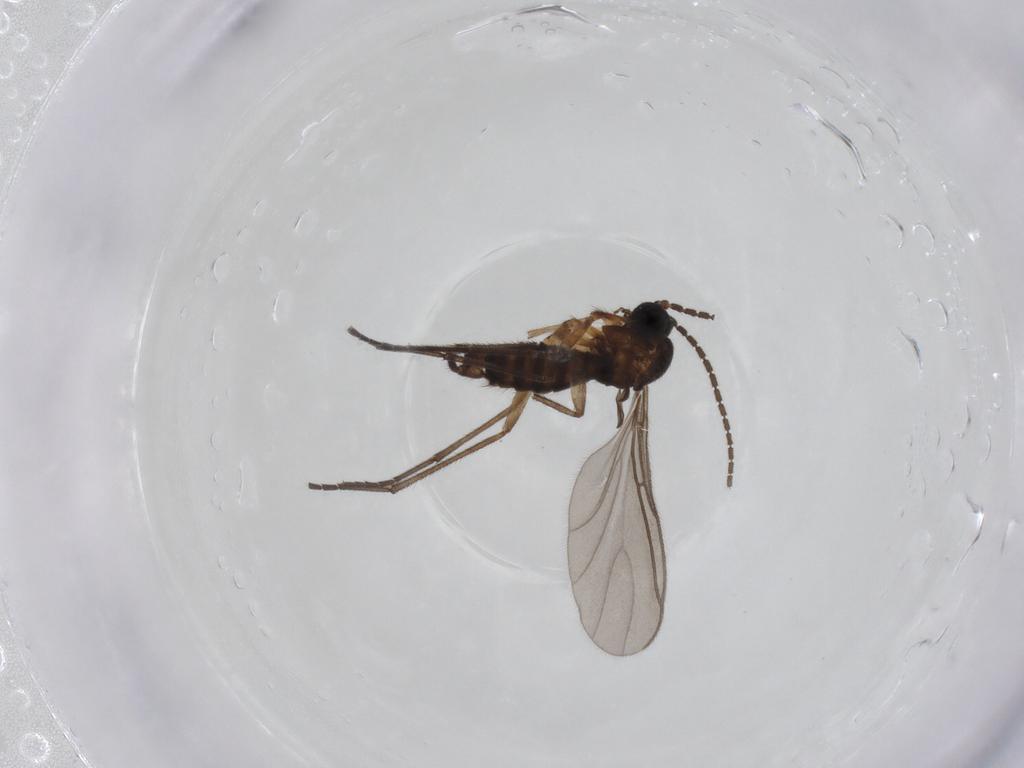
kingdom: Animalia
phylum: Arthropoda
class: Insecta
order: Diptera
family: Sciaridae
